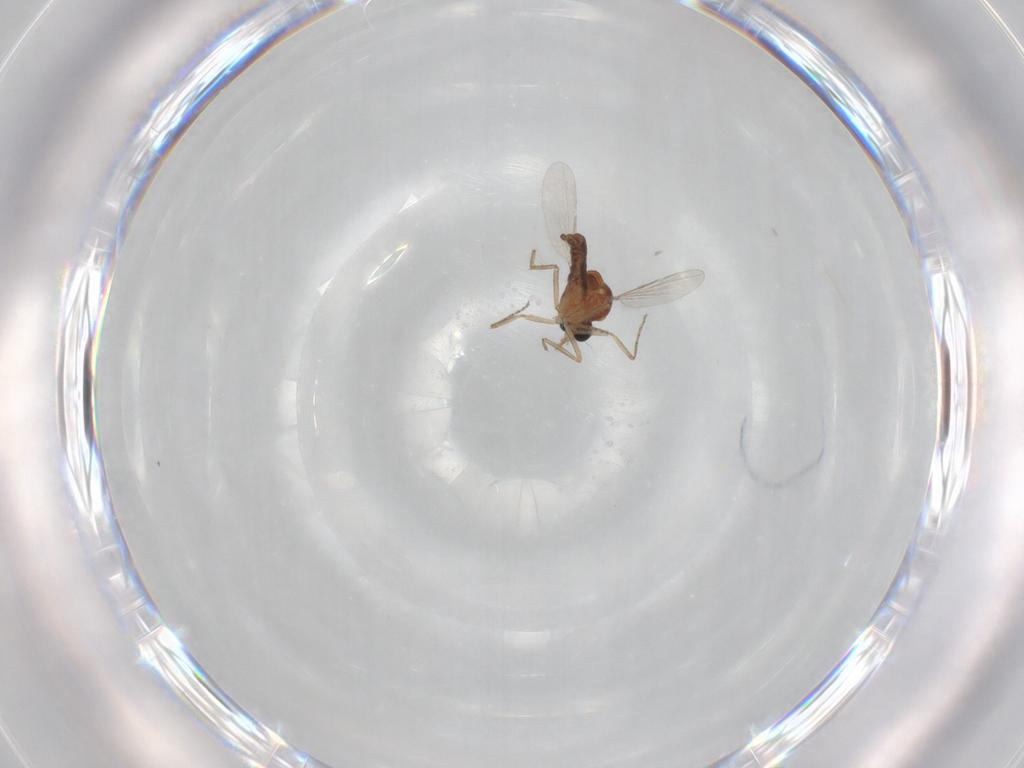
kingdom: Animalia
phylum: Arthropoda
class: Insecta
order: Diptera
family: Ceratopogonidae
